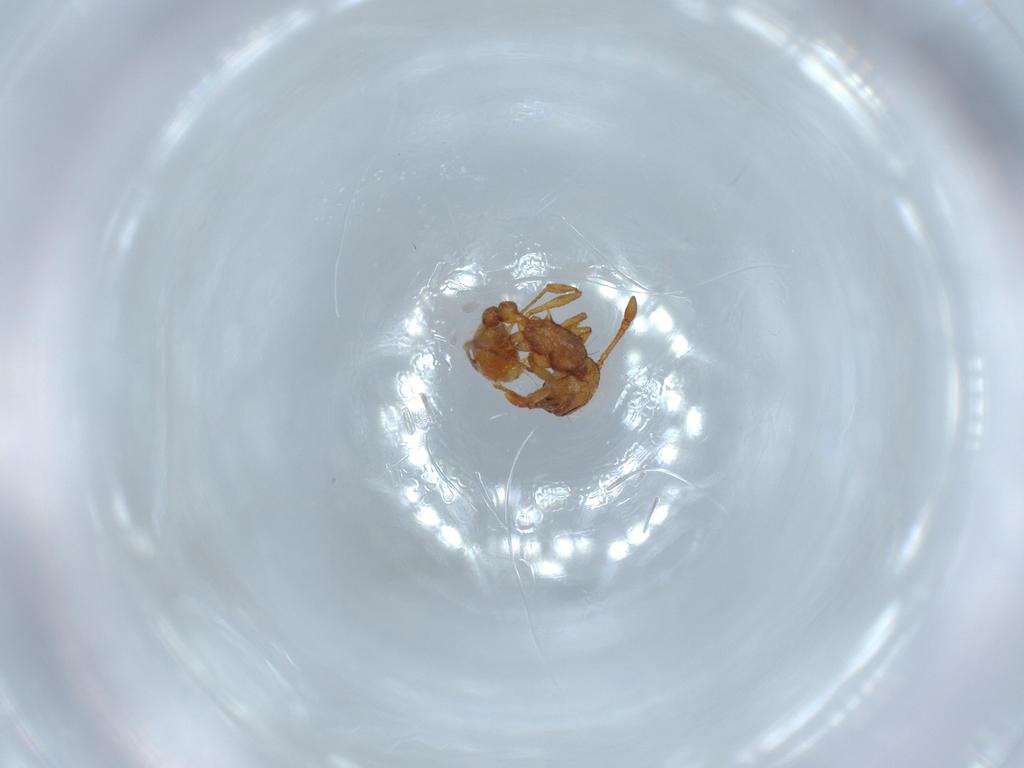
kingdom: Animalia
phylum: Arthropoda
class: Insecta
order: Hymenoptera
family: Formicidae
